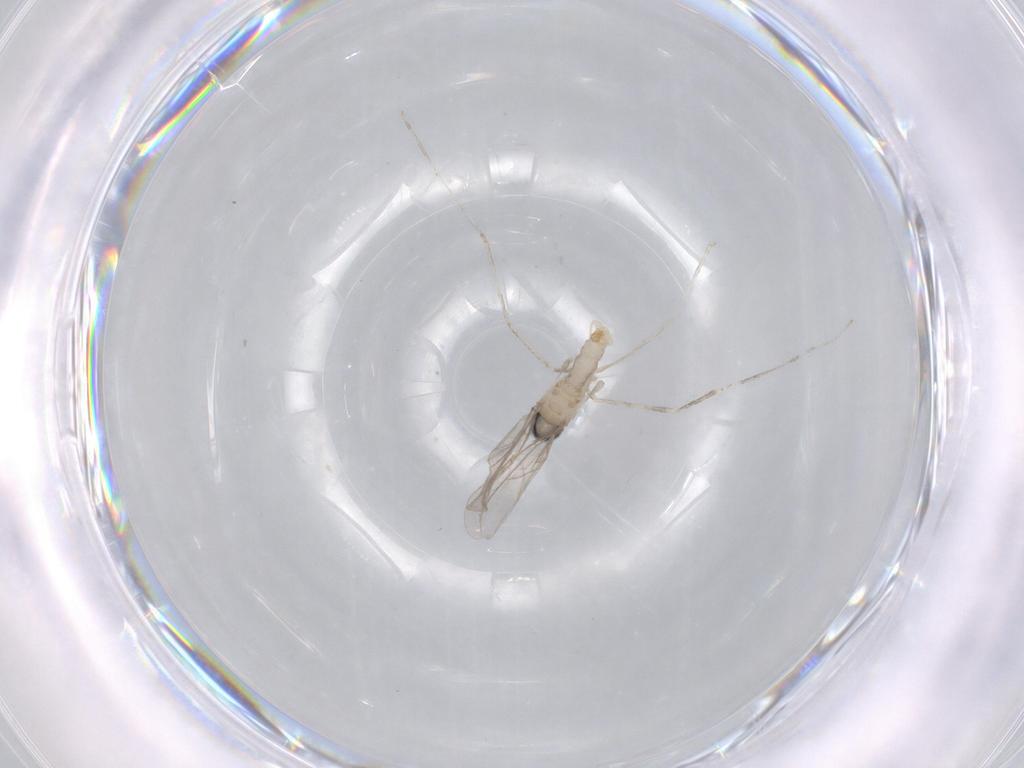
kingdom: Animalia
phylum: Arthropoda
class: Insecta
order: Diptera
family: Cecidomyiidae
